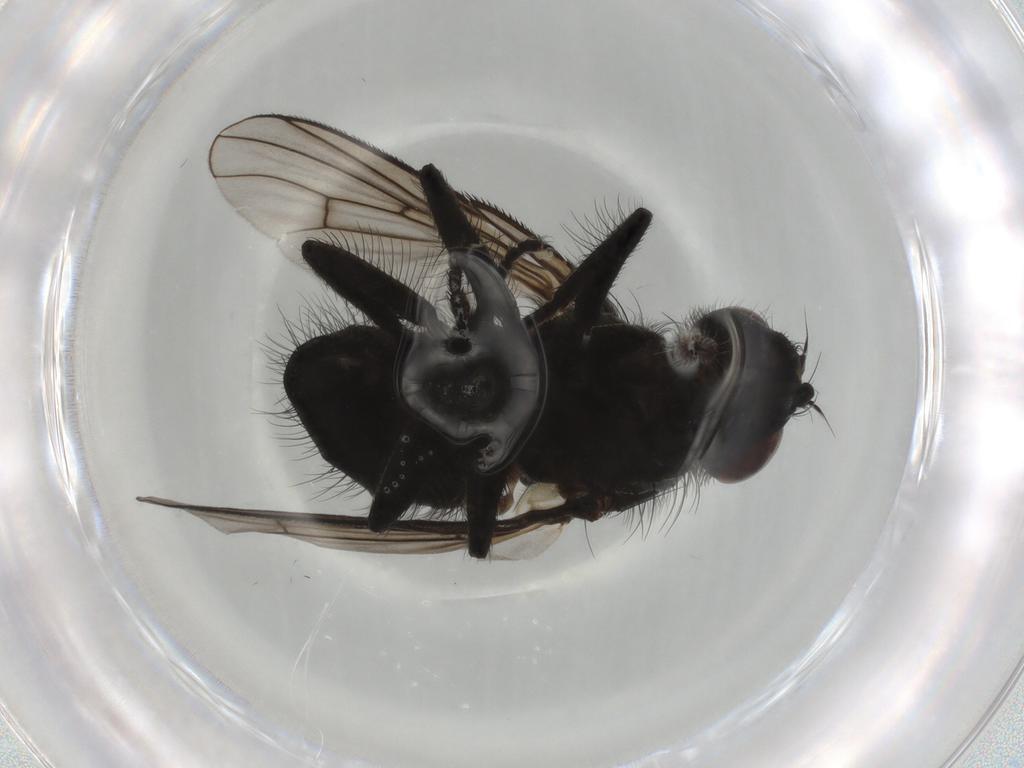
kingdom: Animalia
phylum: Arthropoda
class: Insecta
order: Diptera
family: Muscidae
